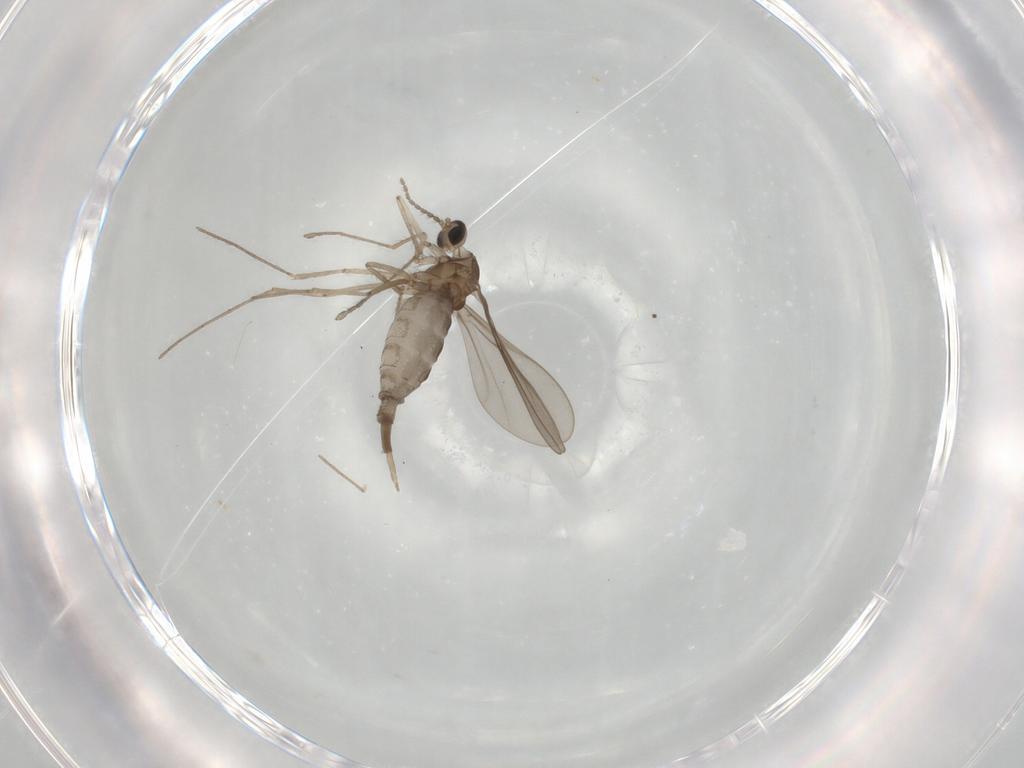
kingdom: Animalia
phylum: Arthropoda
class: Insecta
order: Diptera
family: Cecidomyiidae
